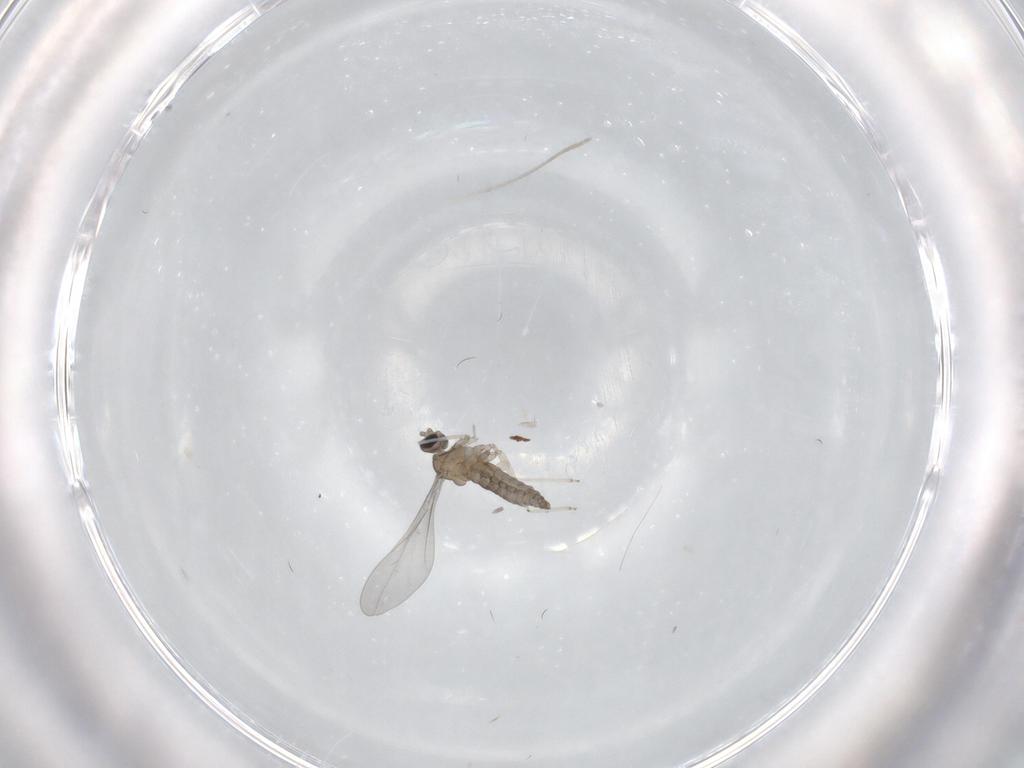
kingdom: Animalia
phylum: Arthropoda
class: Insecta
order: Diptera
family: Cecidomyiidae
